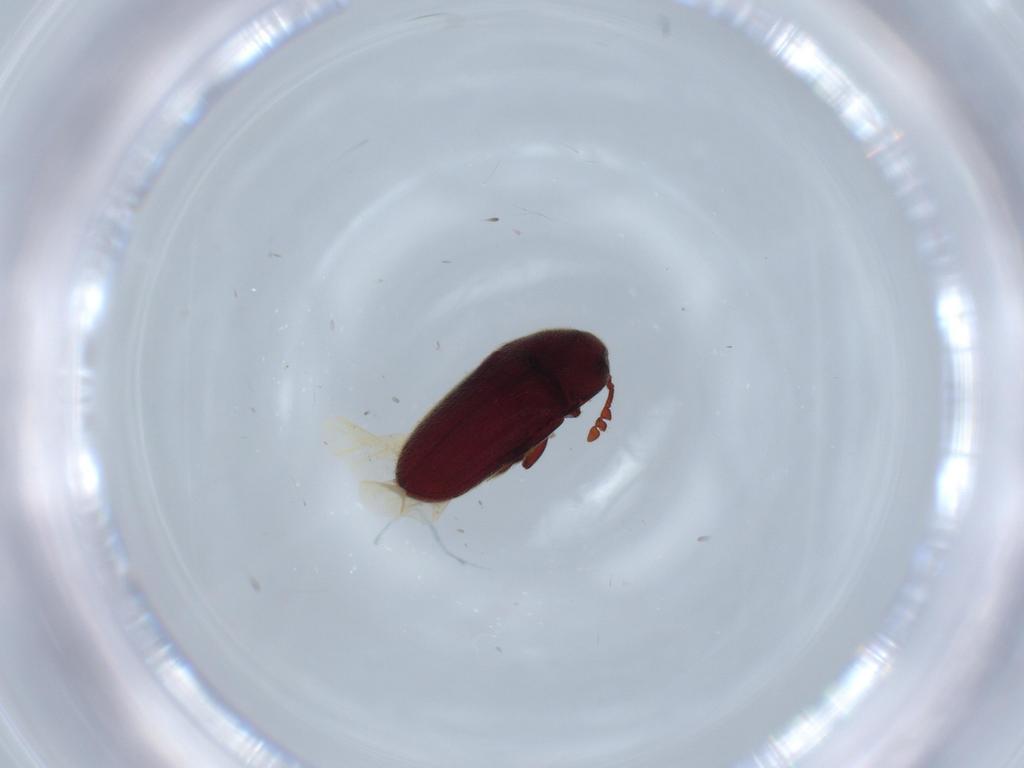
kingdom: Animalia
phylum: Arthropoda
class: Insecta
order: Coleoptera
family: Throscidae
